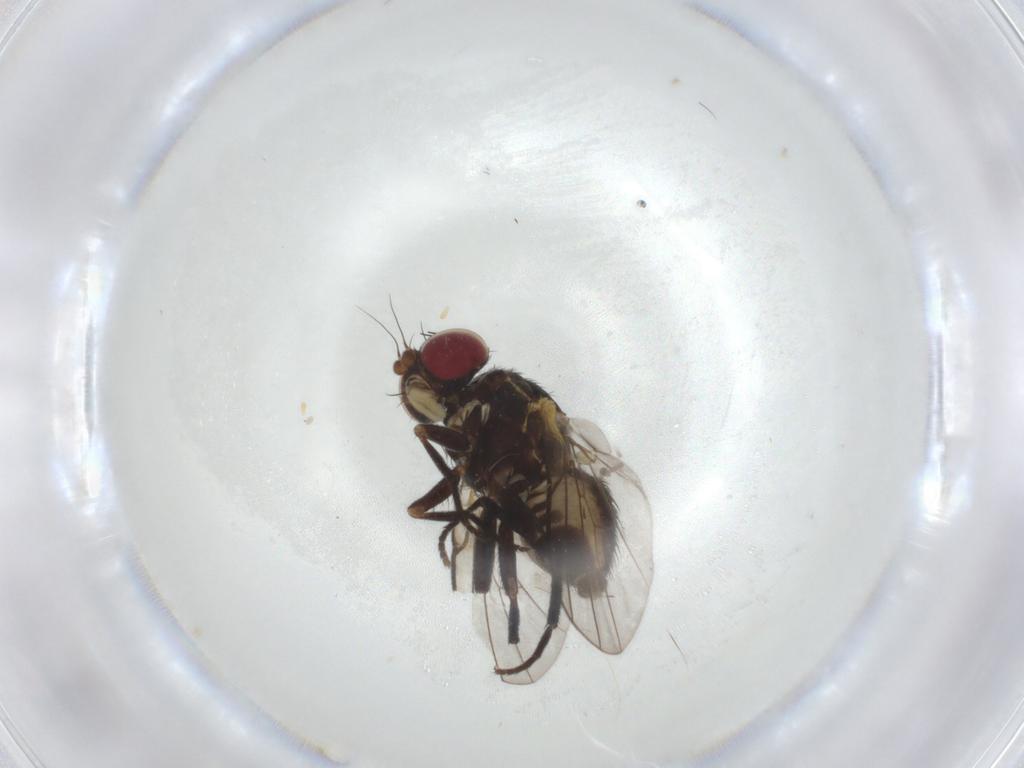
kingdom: Animalia
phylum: Arthropoda
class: Insecta
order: Diptera
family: Agromyzidae
